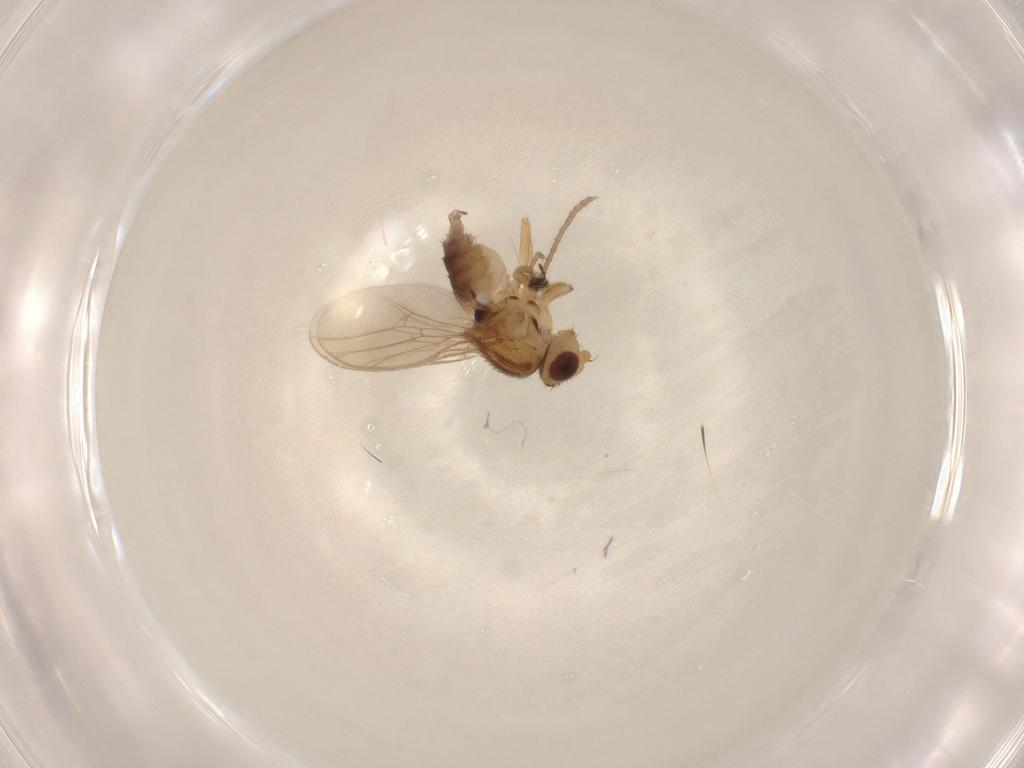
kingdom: Animalia
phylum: Arthropoda
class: Insecta
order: Diptera
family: Chloropidae
